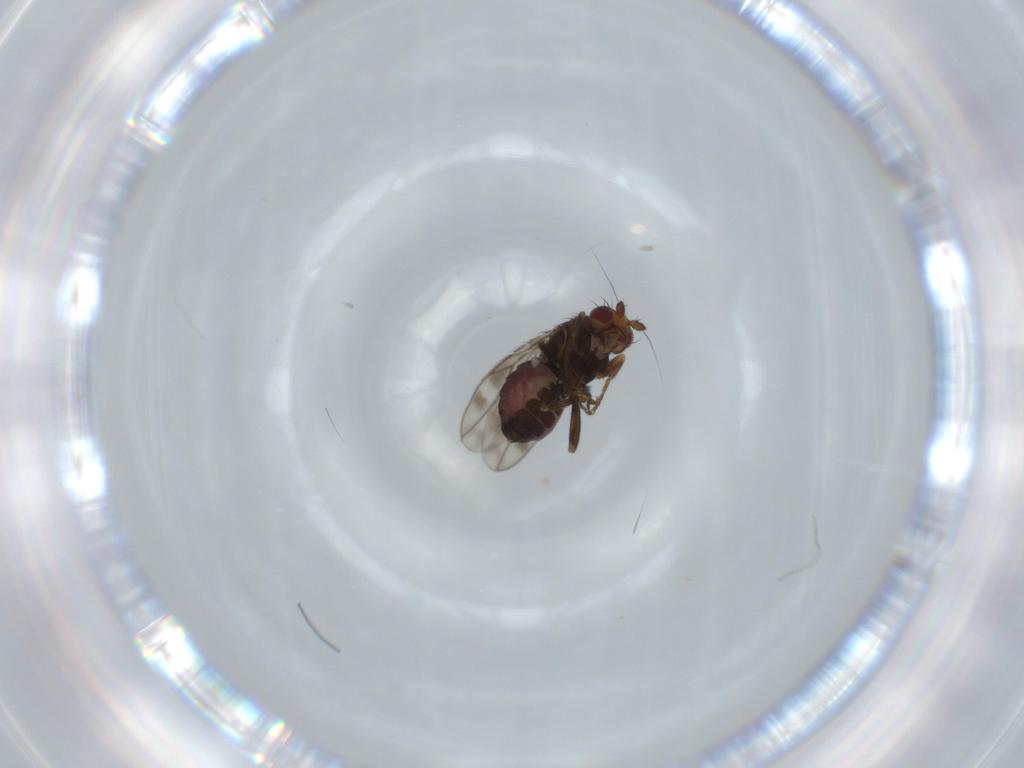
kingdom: Animalia
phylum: Arthropoda
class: Insecta
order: Diptera
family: Sphaeroceridae
